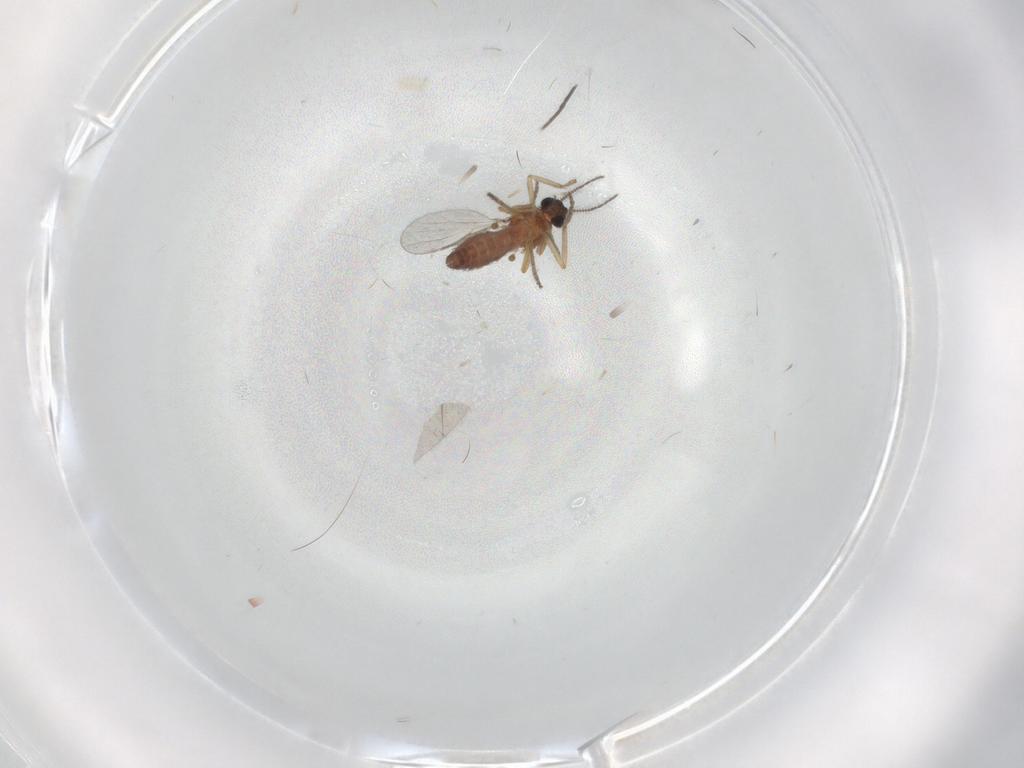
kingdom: Animalia
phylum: Arthropoda
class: Insecta
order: Diptera
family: Ceratopogonidae
